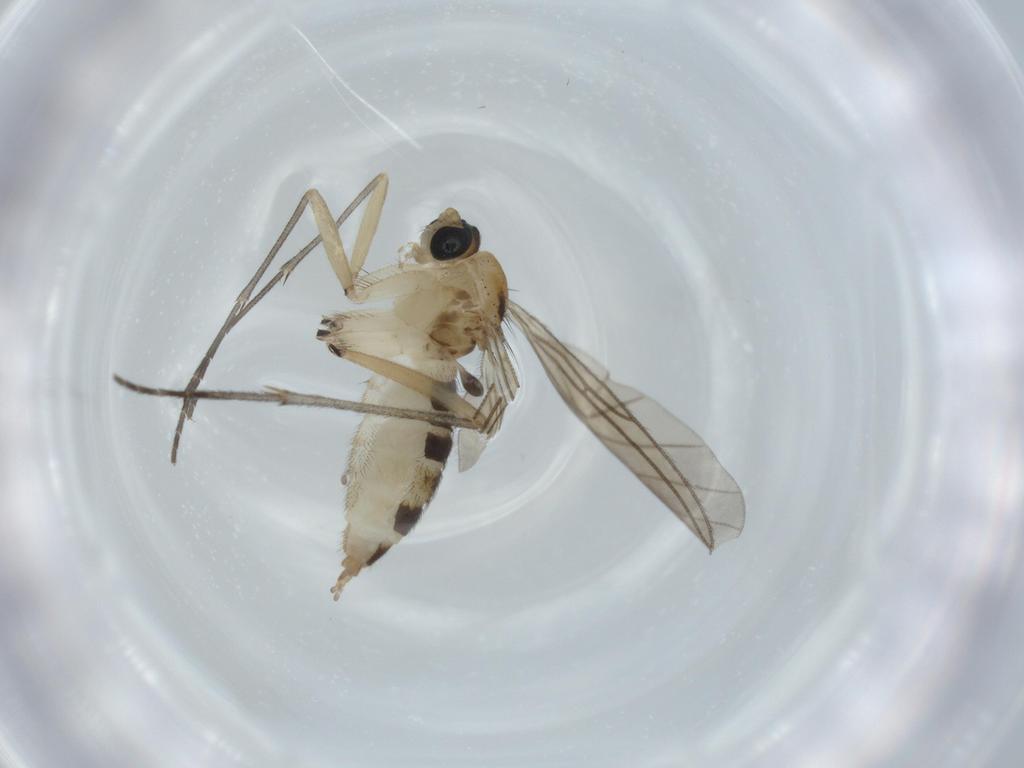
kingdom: Animalia
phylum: Arthropoda
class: Insecta
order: Diptera
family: Sciaridae
